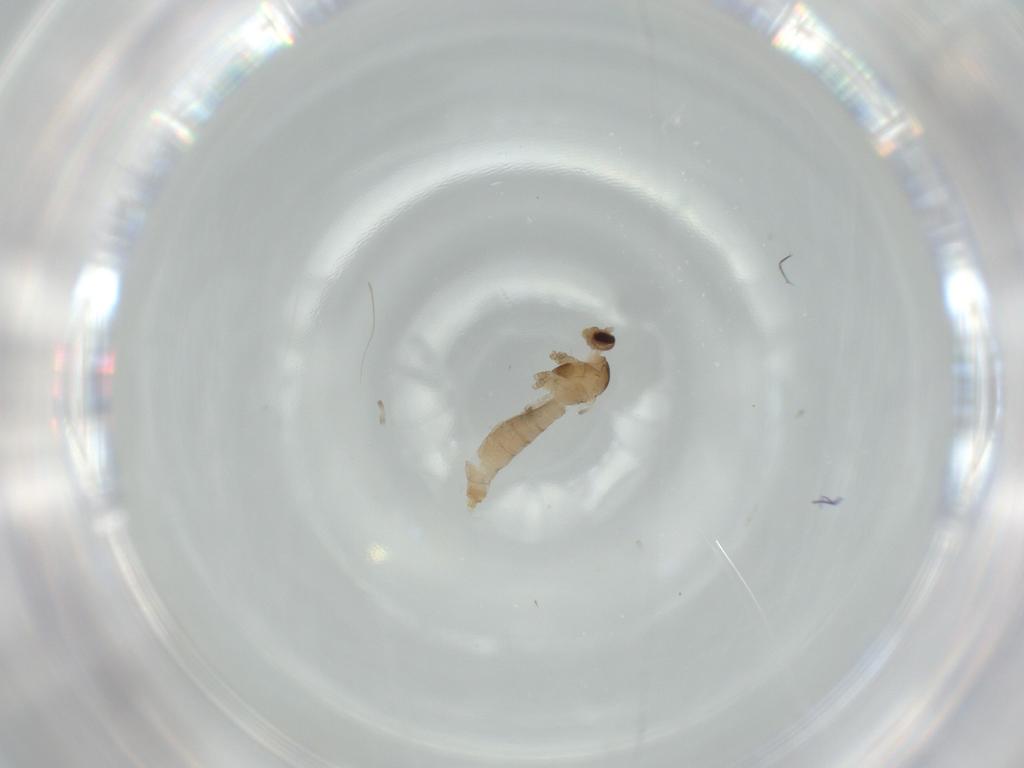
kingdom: Animalia
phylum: Arthropoda
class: Insecta
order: Diptera
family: Cecidomyiidae
